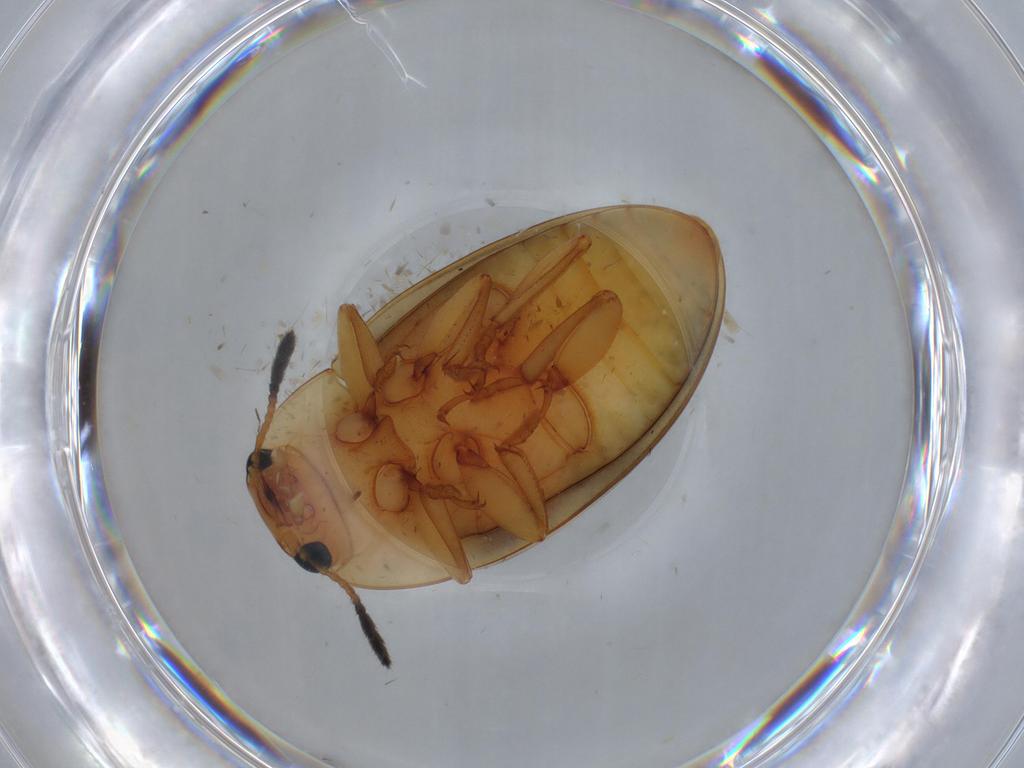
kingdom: Animalia
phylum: Arthropoda
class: Insecta
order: Coleoptera
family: Erotylidae
